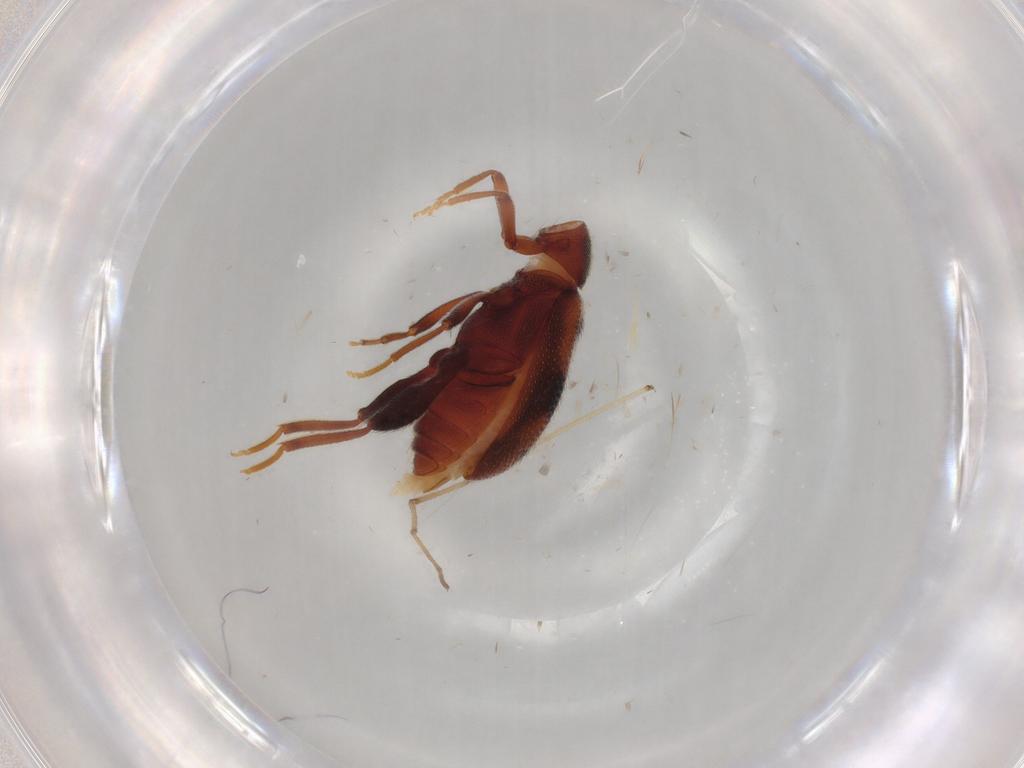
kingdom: Animalia
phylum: Arthropoda
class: Insecta
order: Coleoptera
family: Aderidae
